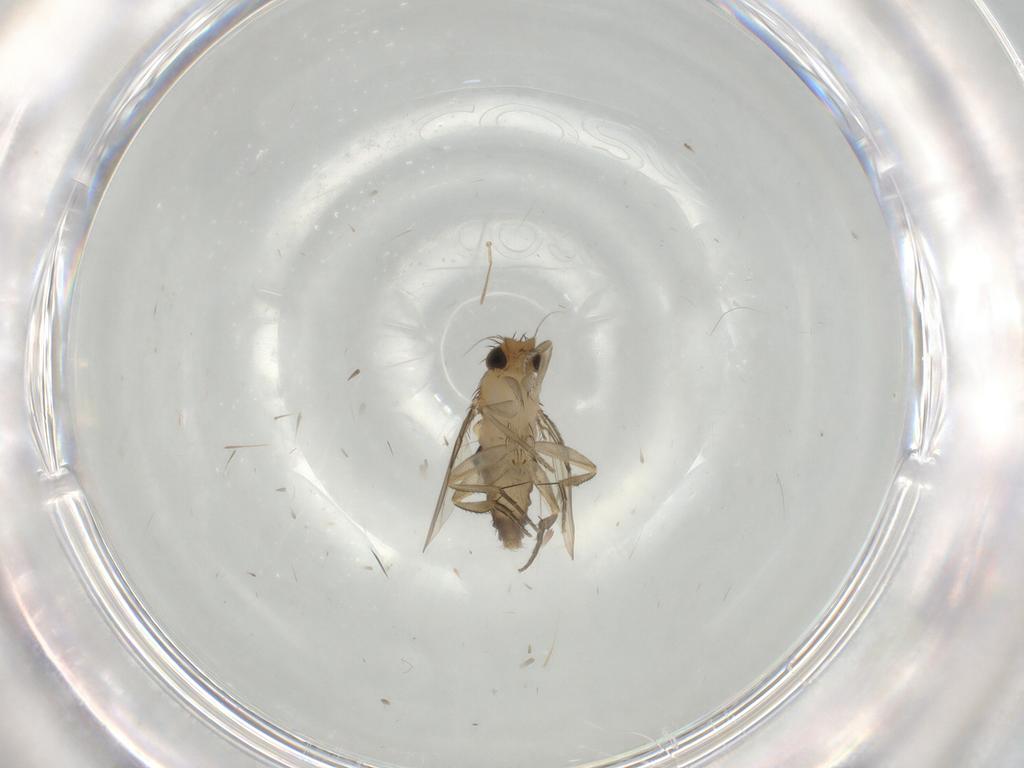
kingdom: Animalia
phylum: Arthropoda
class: Insecta
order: Diptera
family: Phoridae
